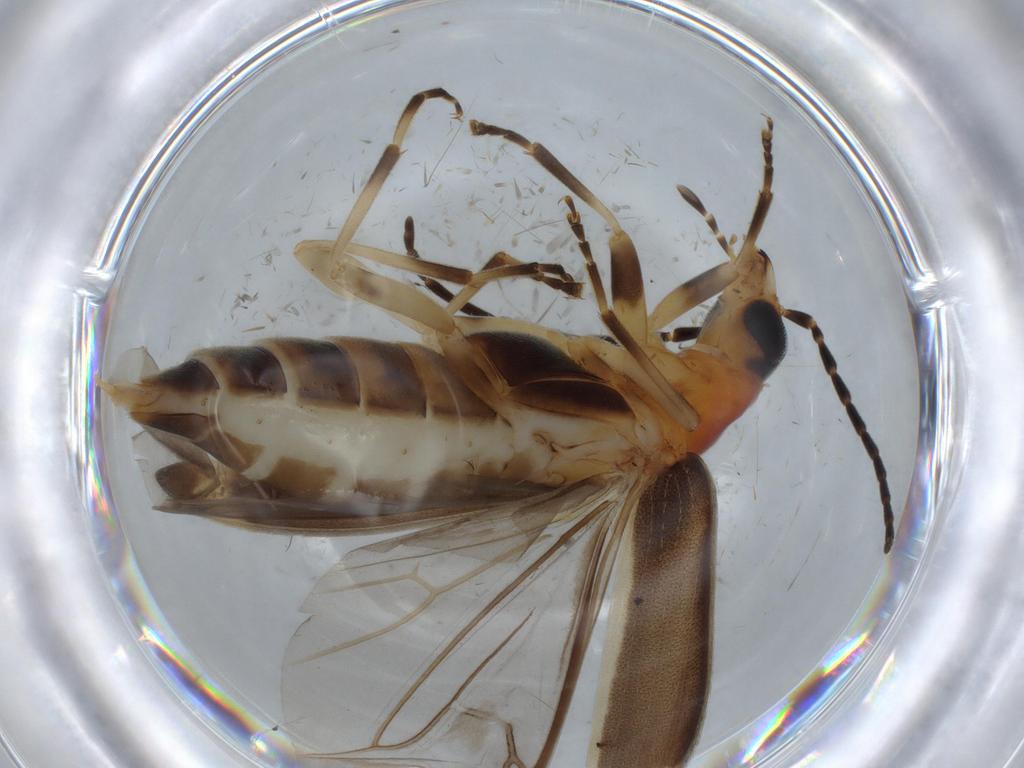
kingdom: Animalia
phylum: Arthropoda
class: Insecta
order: Coleoptera
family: Oedemeridae
